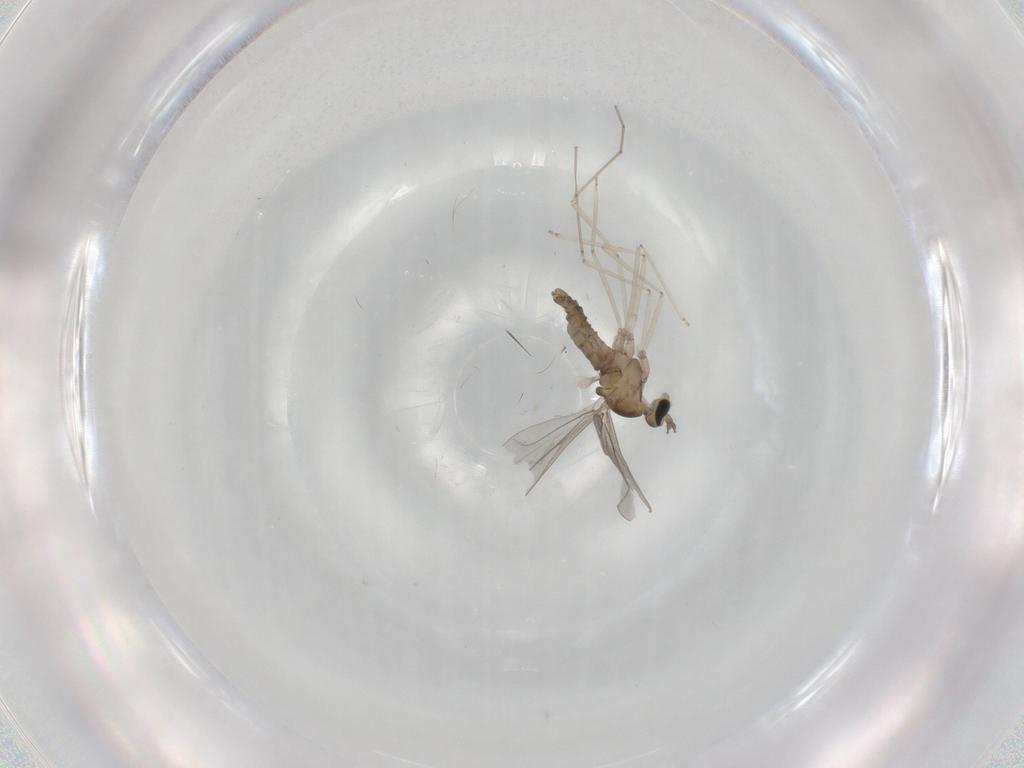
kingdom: Animalia
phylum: Arthropoda
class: Insecta
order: Diptera
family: Cecidomyiidae
